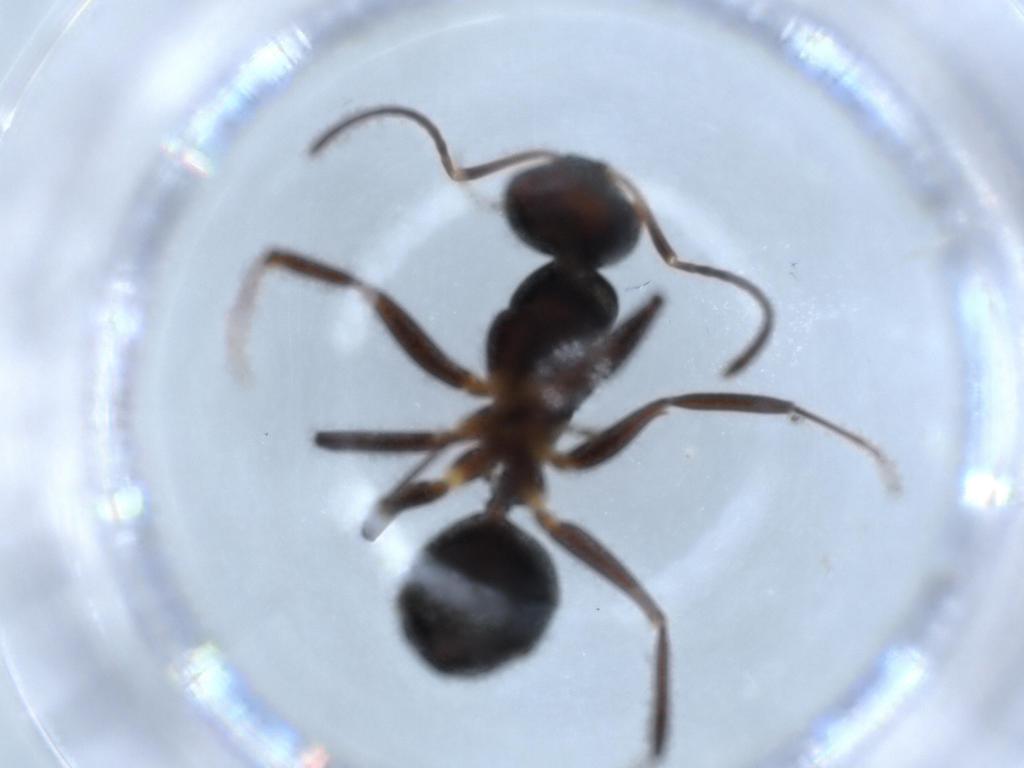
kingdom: Animalia
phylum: Arthropoda
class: Insecta
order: Hymenoptera
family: Formicidae
